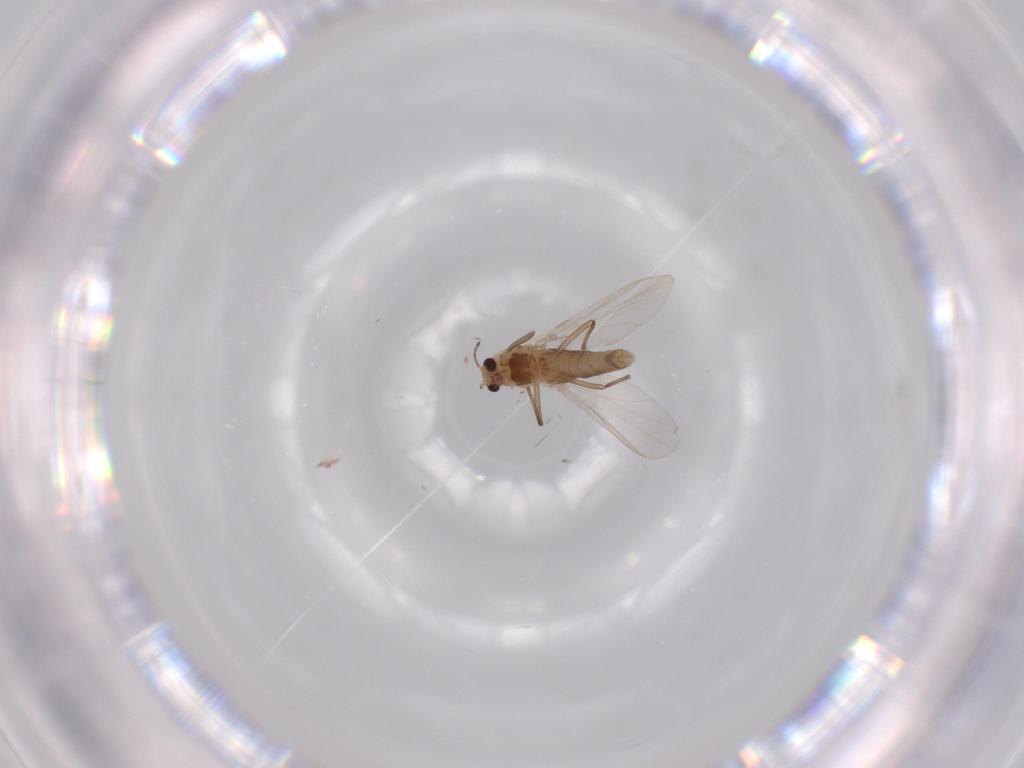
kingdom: Animalia
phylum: Arthropoda
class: Insecta
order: Diptera
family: Chironomidae
